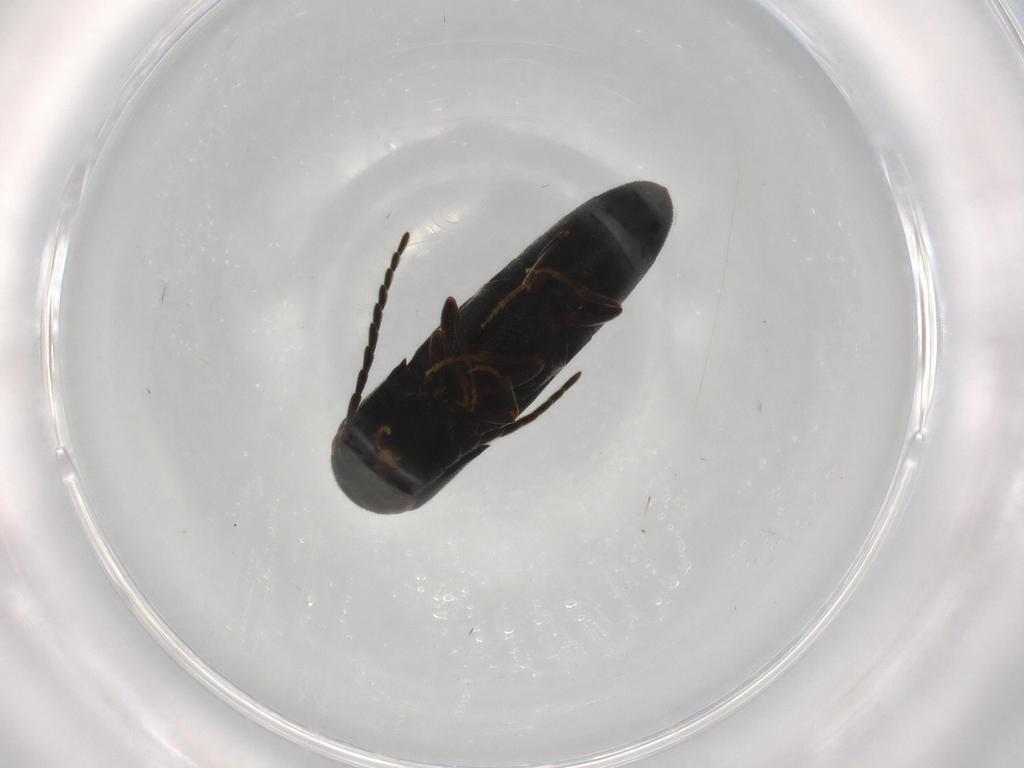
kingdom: Animalia
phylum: Arthropoda
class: Insecta
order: Coleoptera
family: Eucnemidae
